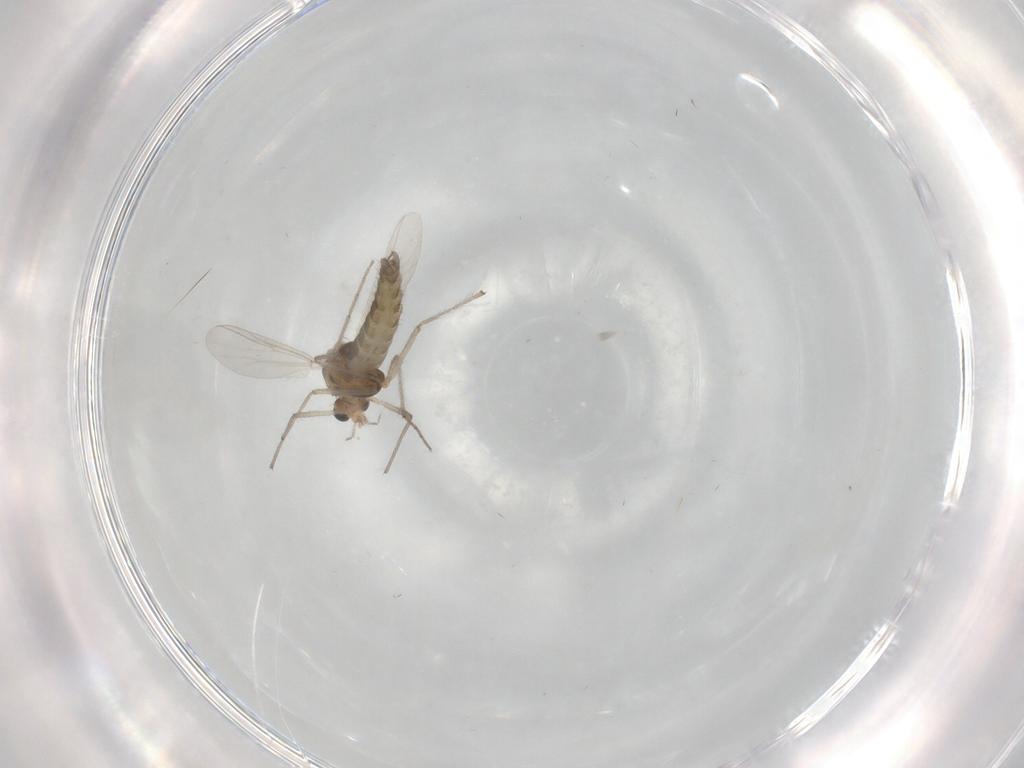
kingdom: Animalia
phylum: Arthropoda
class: Insecta
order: Diptera
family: Chironomidae
